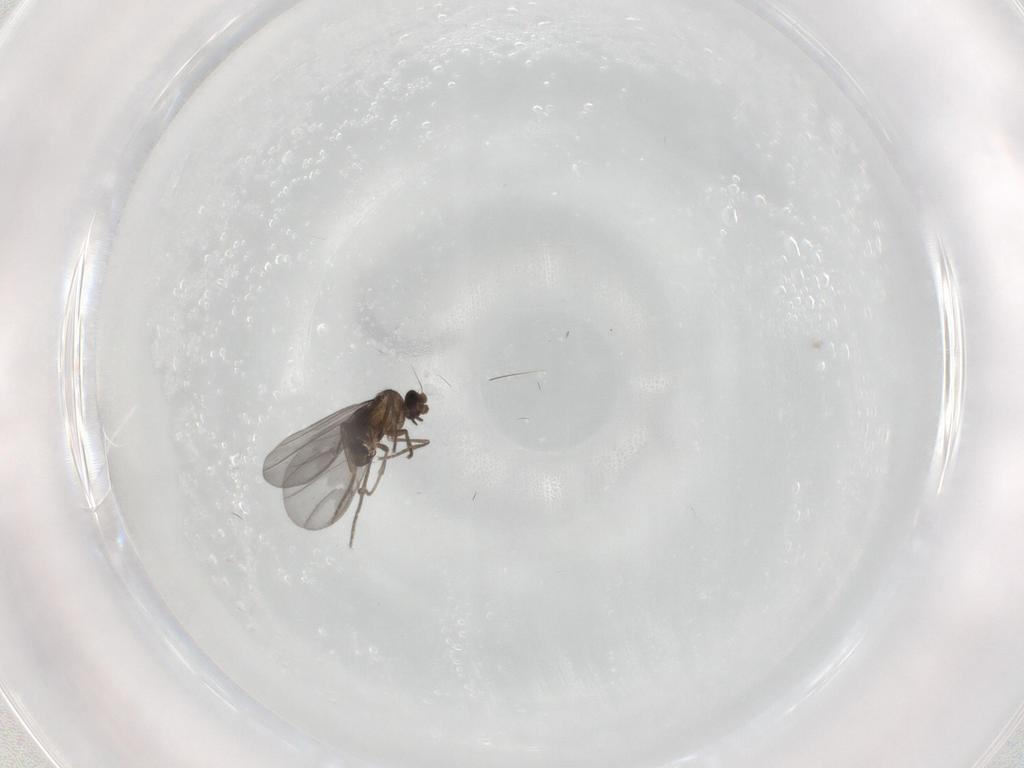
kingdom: Animalia
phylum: Arthropoda
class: Insecta
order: Diptera
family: Phoridae
